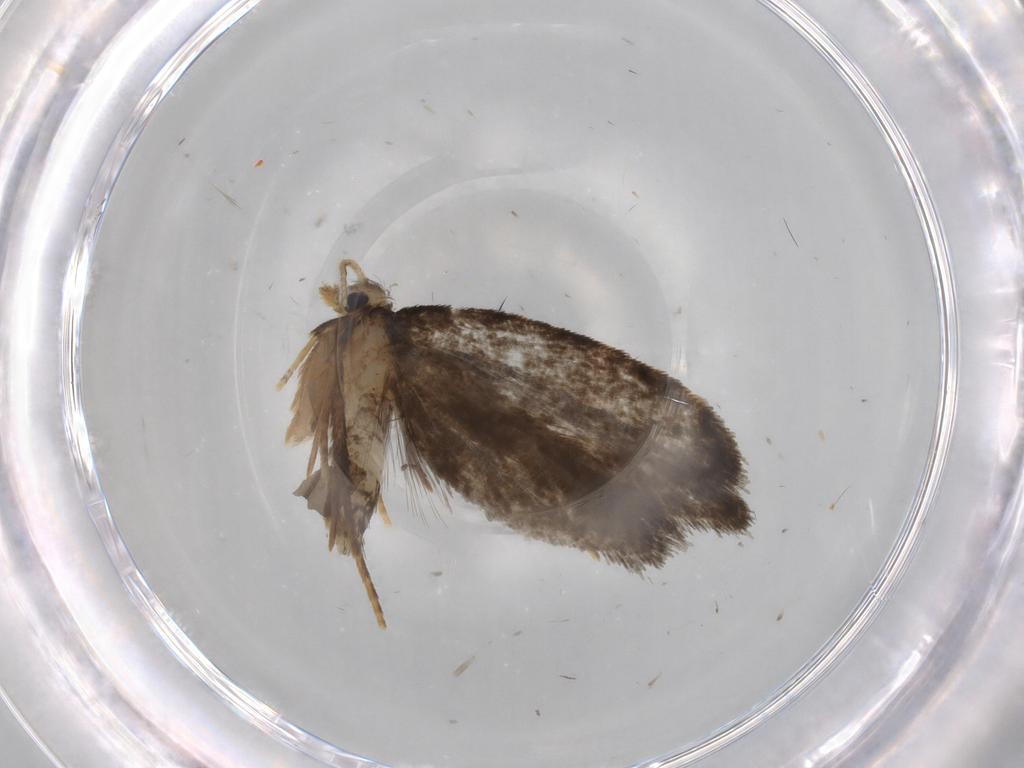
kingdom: Animalia
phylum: Arthropoda
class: Insecta
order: Lepidoptera
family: Psychidae
